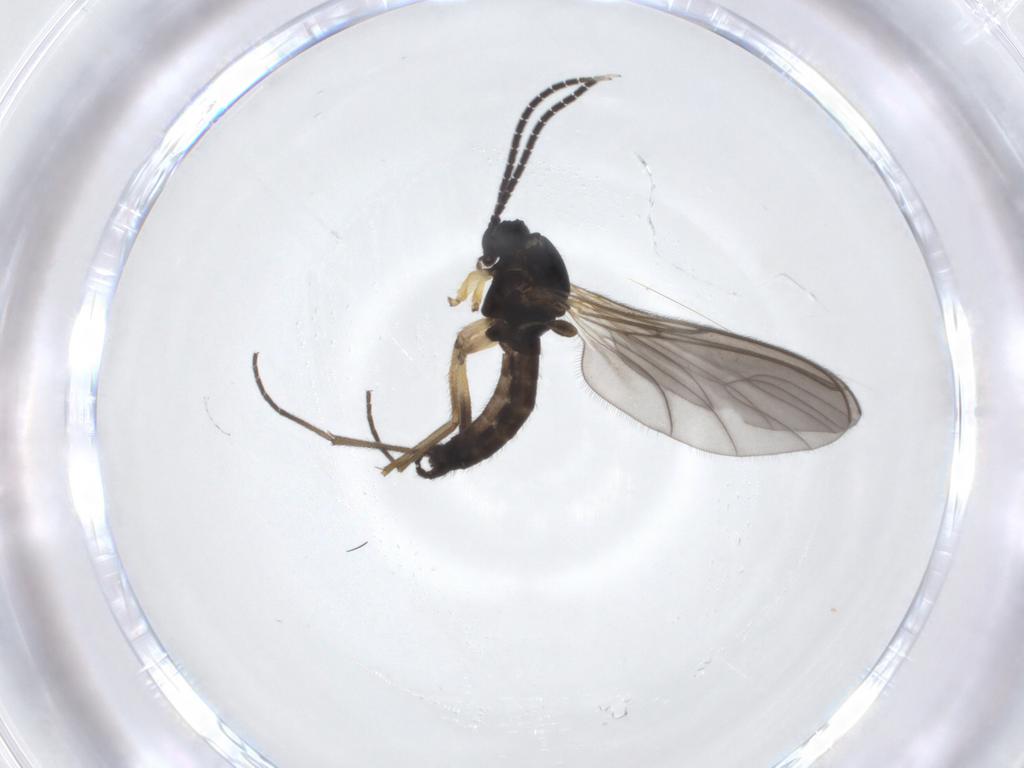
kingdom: Animalia
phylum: Arthropoda
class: Insecta
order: Diptera
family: Sciaridae
